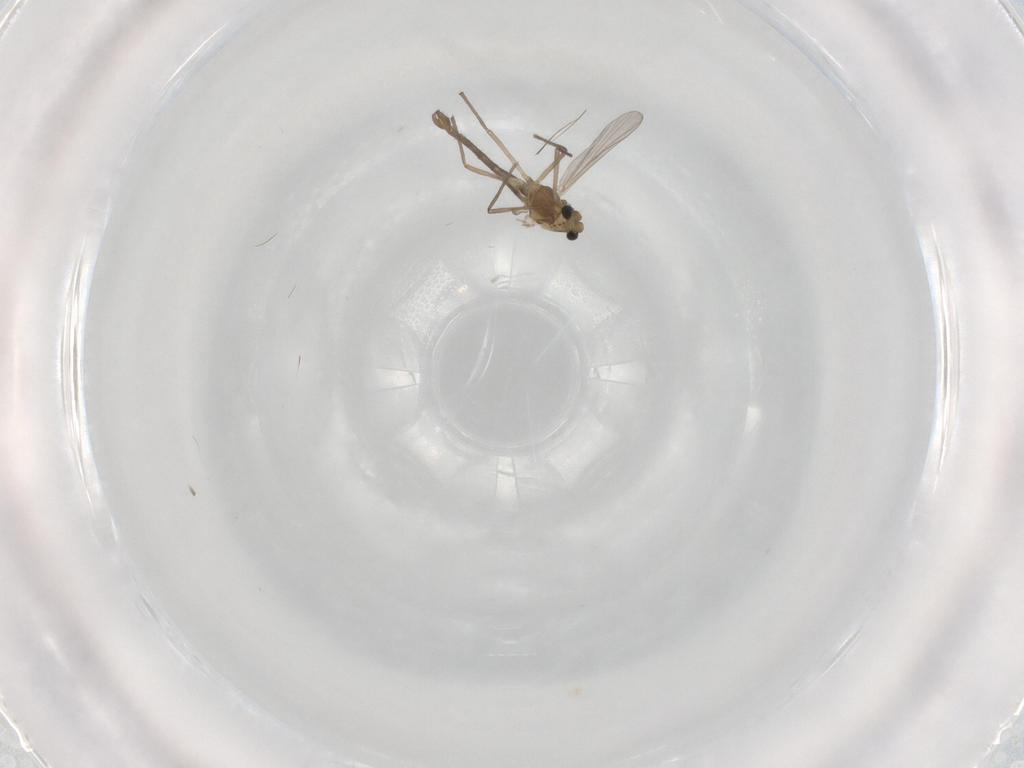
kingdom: Animalia
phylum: Arthropoda
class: Insecta
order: Diptera
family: Hybotidae
